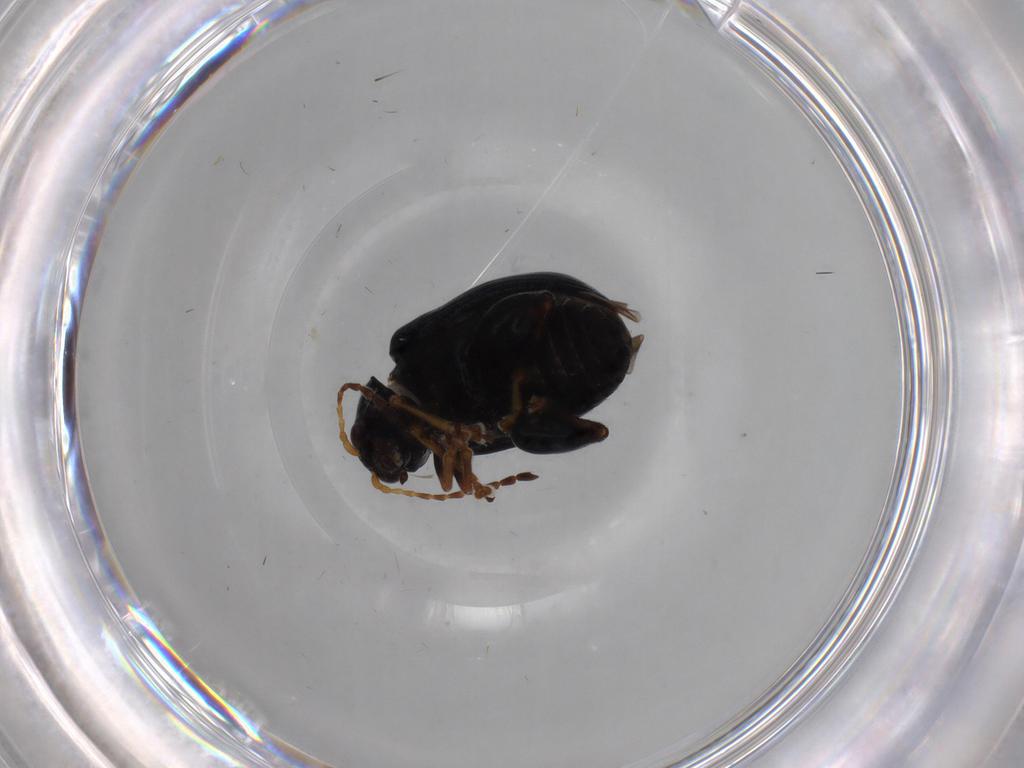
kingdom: Animalia
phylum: Arthropoda
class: Insecta
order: Coleoptera
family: Chrysomelidae
